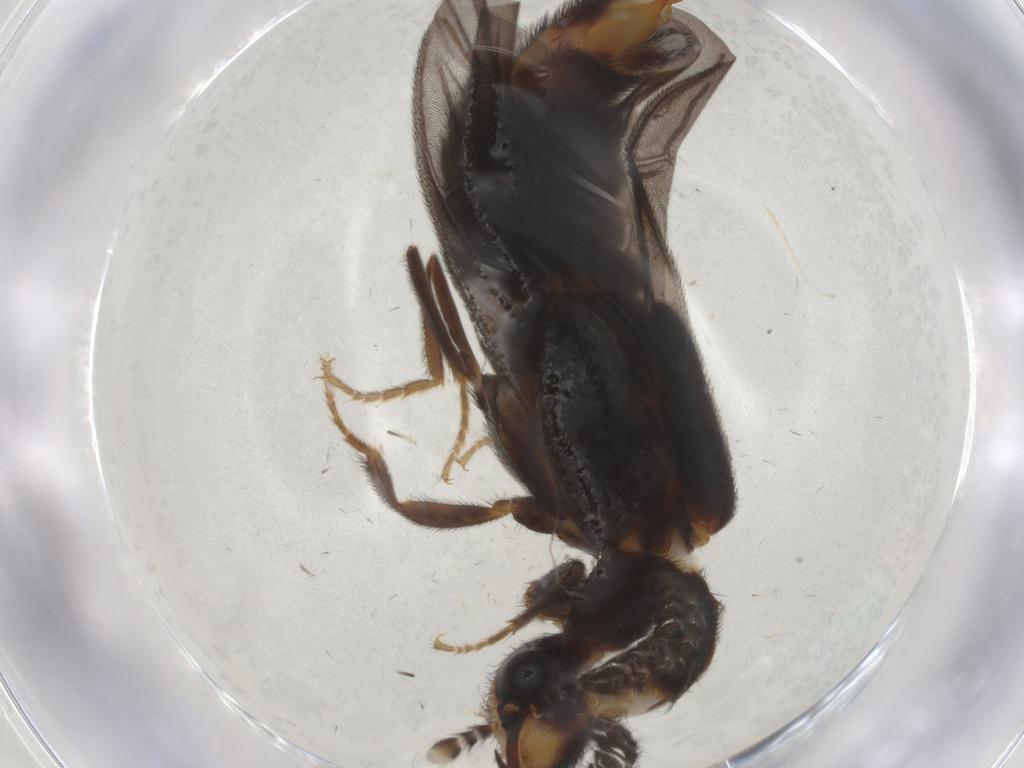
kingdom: Animalia
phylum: Arthropoda
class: Insecta
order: Coleoptera
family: Phengodidae
